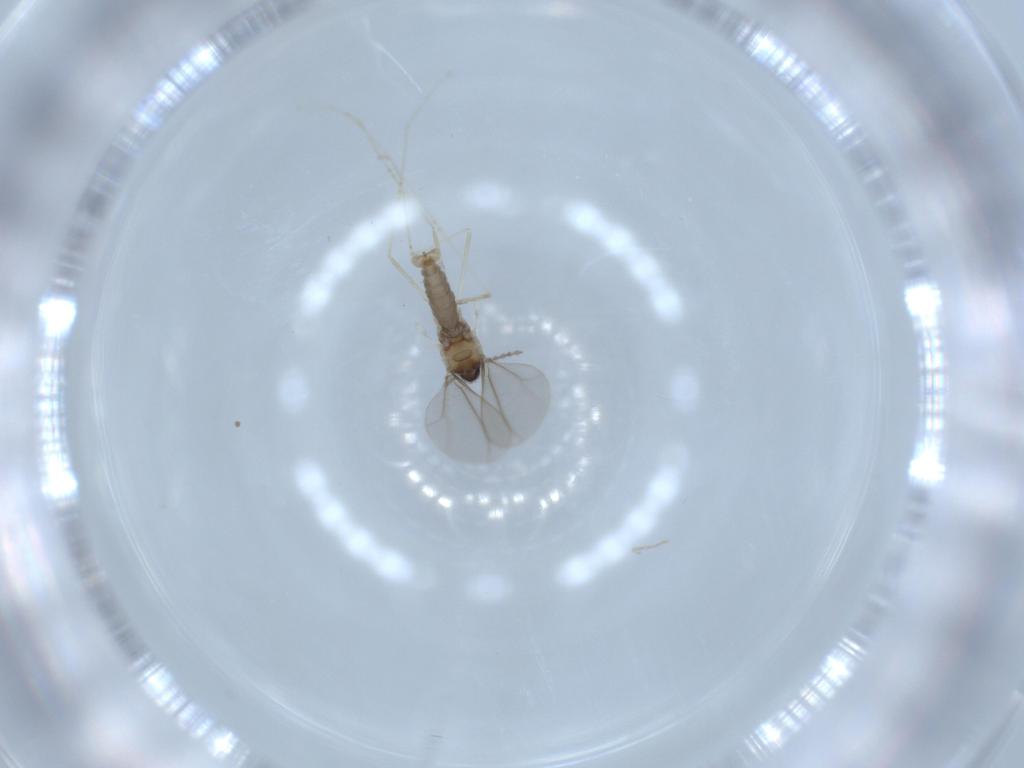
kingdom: Animalia
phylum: Arthropoda
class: Insecta
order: Diptera
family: Cecidomyiidae
